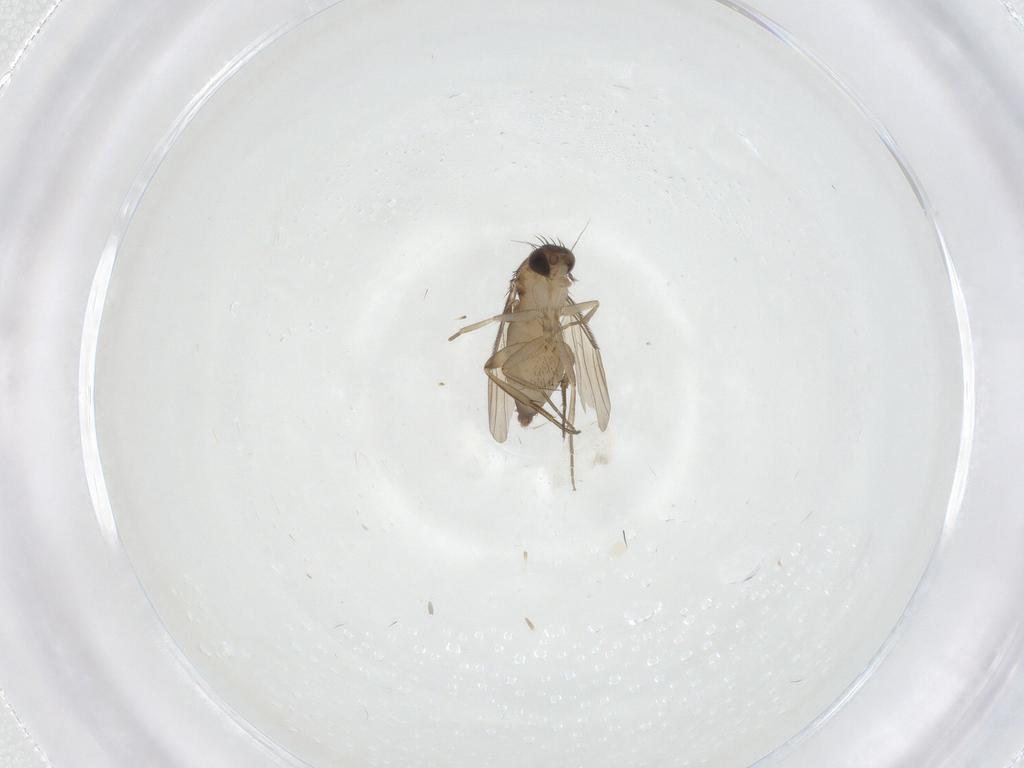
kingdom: Animalia
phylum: Arthropoda
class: Insecta
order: Diptera
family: Phoridae
